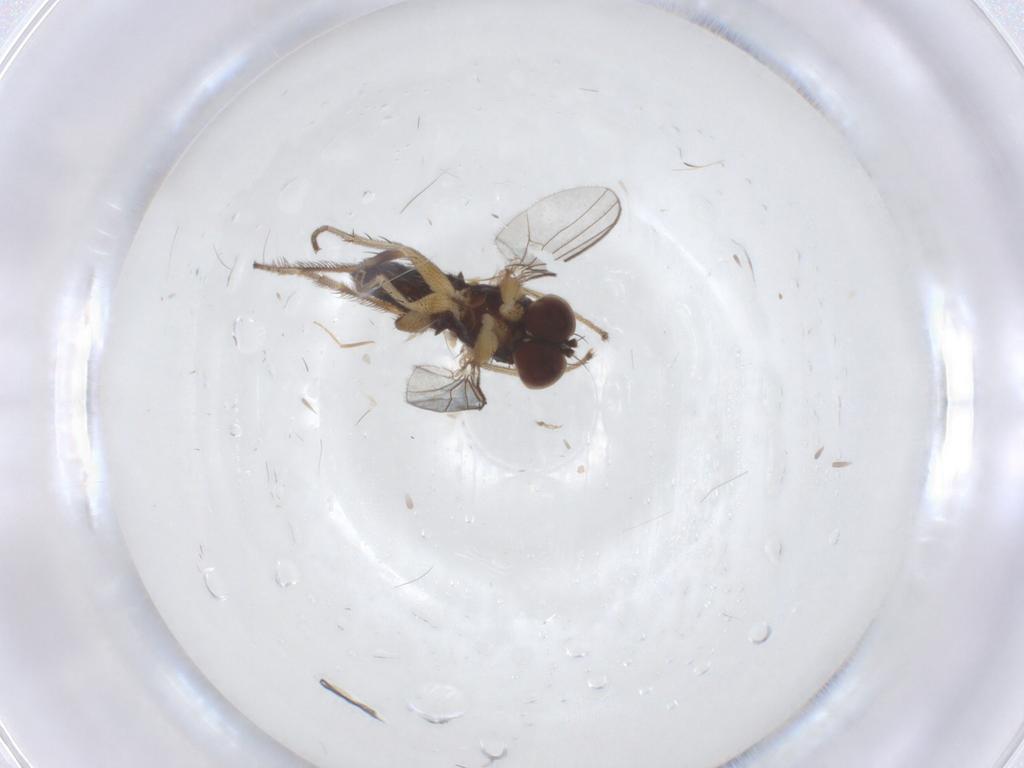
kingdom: Animalia
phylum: Arthropoda
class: Insecta
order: Diptera
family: Dolichopodidae
